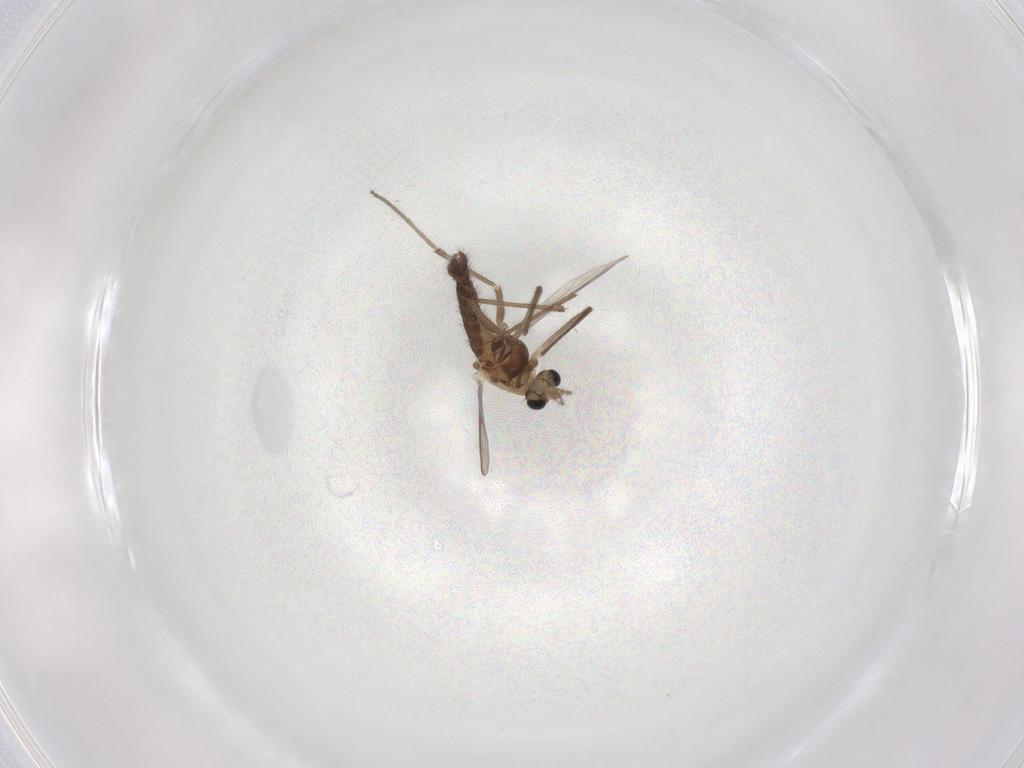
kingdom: Animalia
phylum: Arthropoda
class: Insecta
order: Diptera
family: Chironomidae
